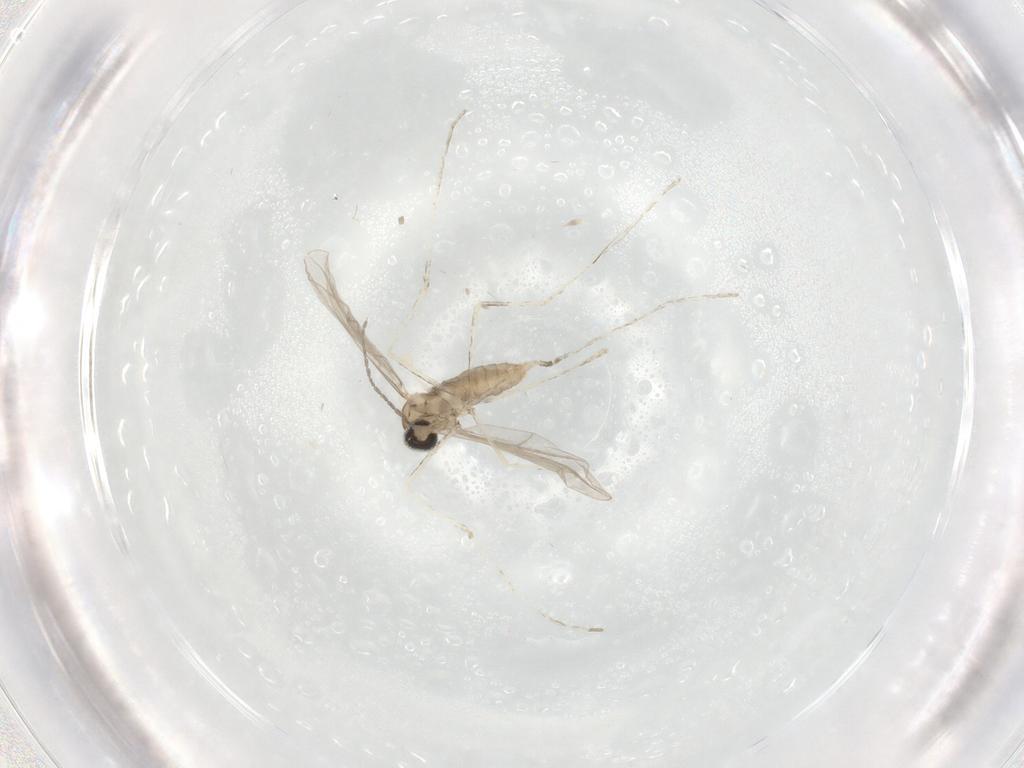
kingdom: Animalia
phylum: Arthropoda
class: Insecta
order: Diptera
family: Cecidomyiidae
